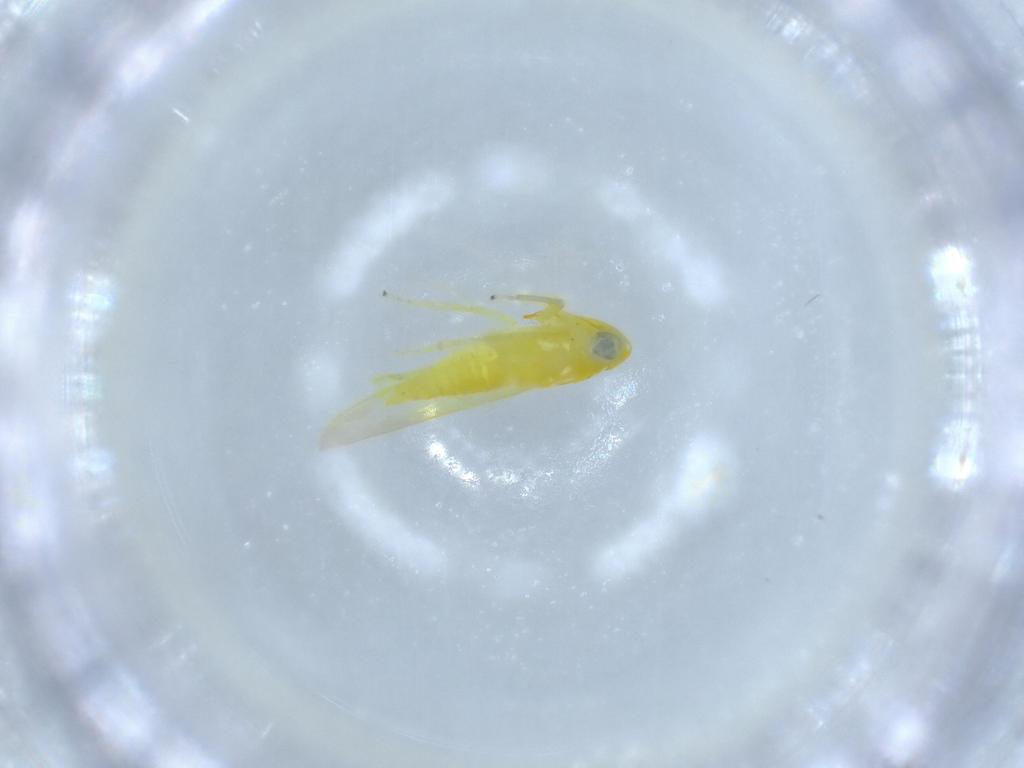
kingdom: Animalia
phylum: Arthropoda
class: Insecta
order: Hemiptera
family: Cicadellidae
